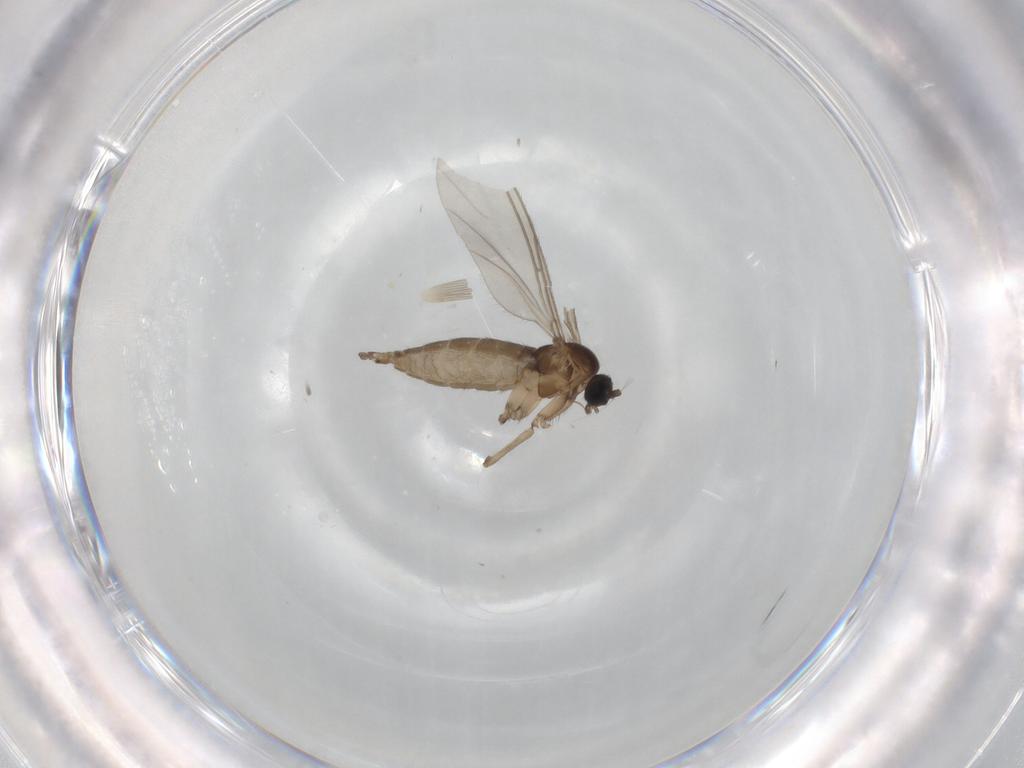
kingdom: Animalia
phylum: Arthropoda
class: Insecta
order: Diptera
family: Sciaridae
